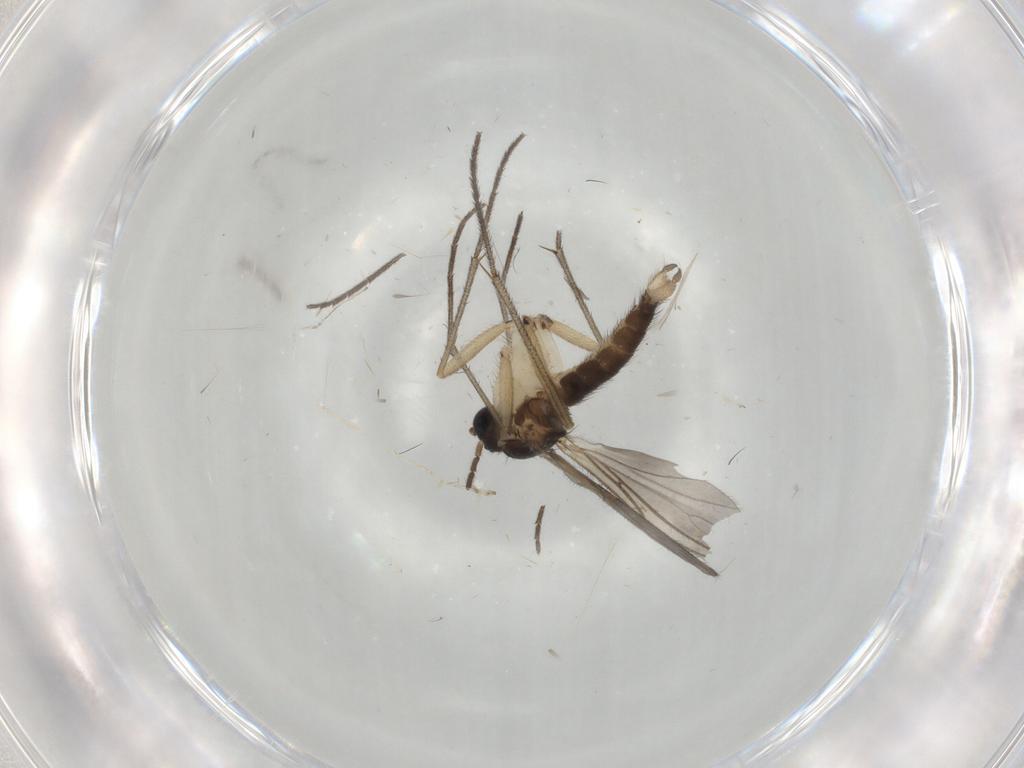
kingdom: Animalia
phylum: Arthropoda
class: Insecta
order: Diptera
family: Sciaridae
